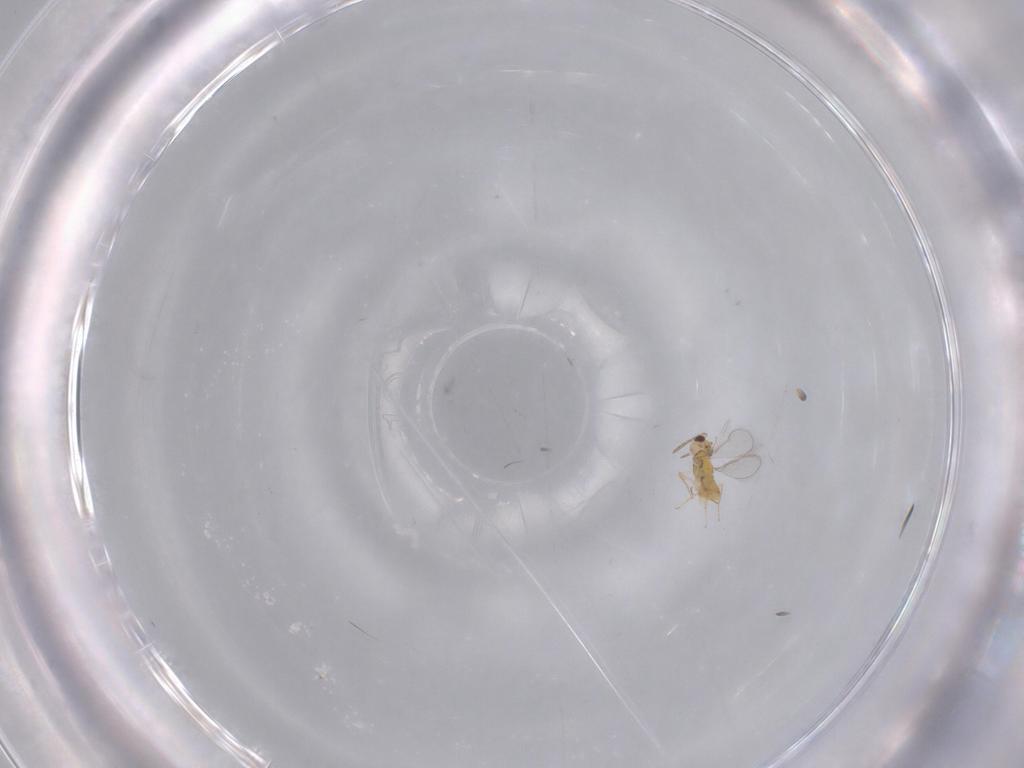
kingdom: Animalia
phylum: Arthropoda
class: Insecta
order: Hymenoptera
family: Aphelinidae
